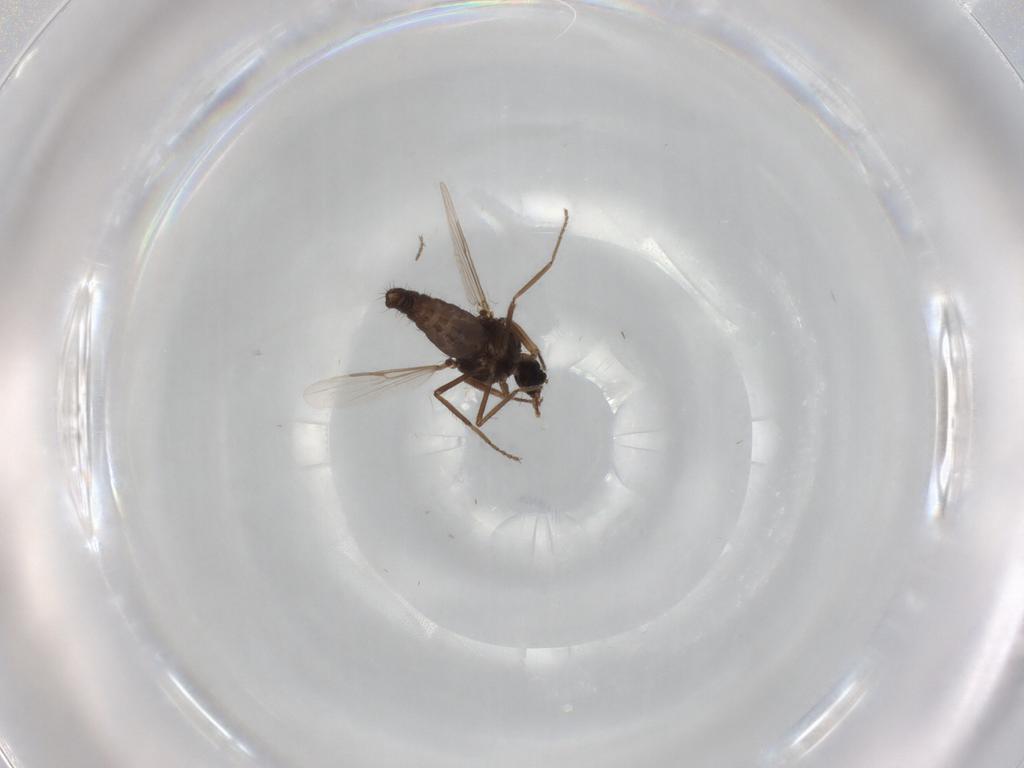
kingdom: Animalia
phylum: Arthropoda
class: Insecta
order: Diptera
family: Ceratopogonidae
